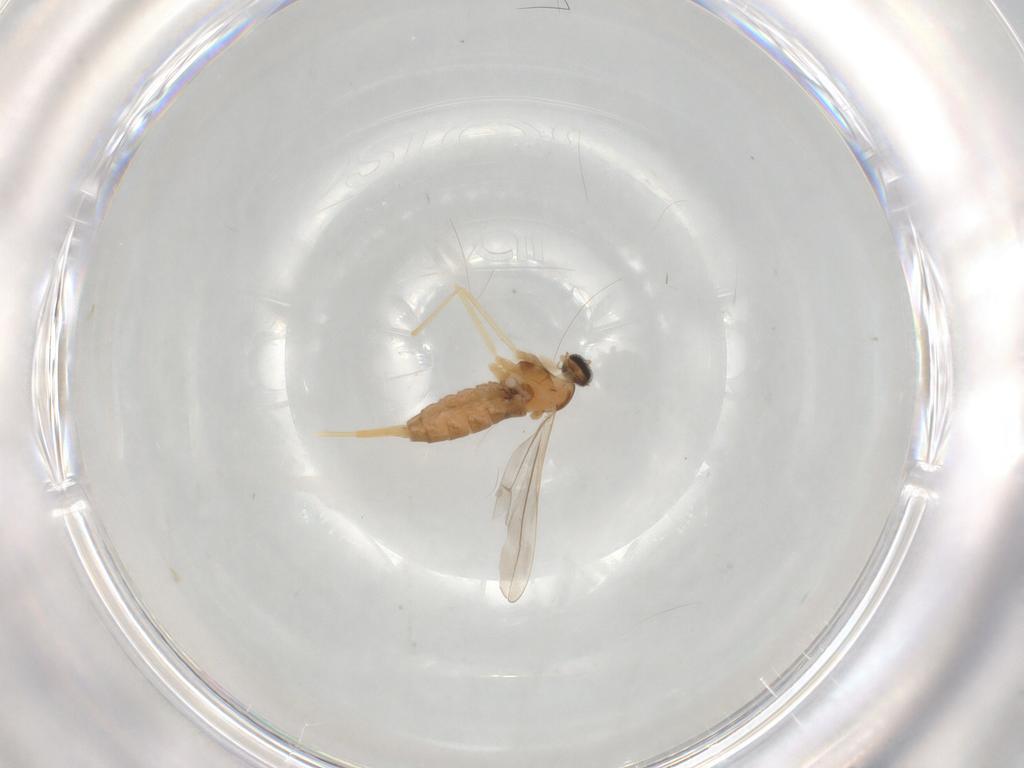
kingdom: Animalia
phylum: Arthropoda
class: Insecta
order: Diptera
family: Cecidomyiidae
